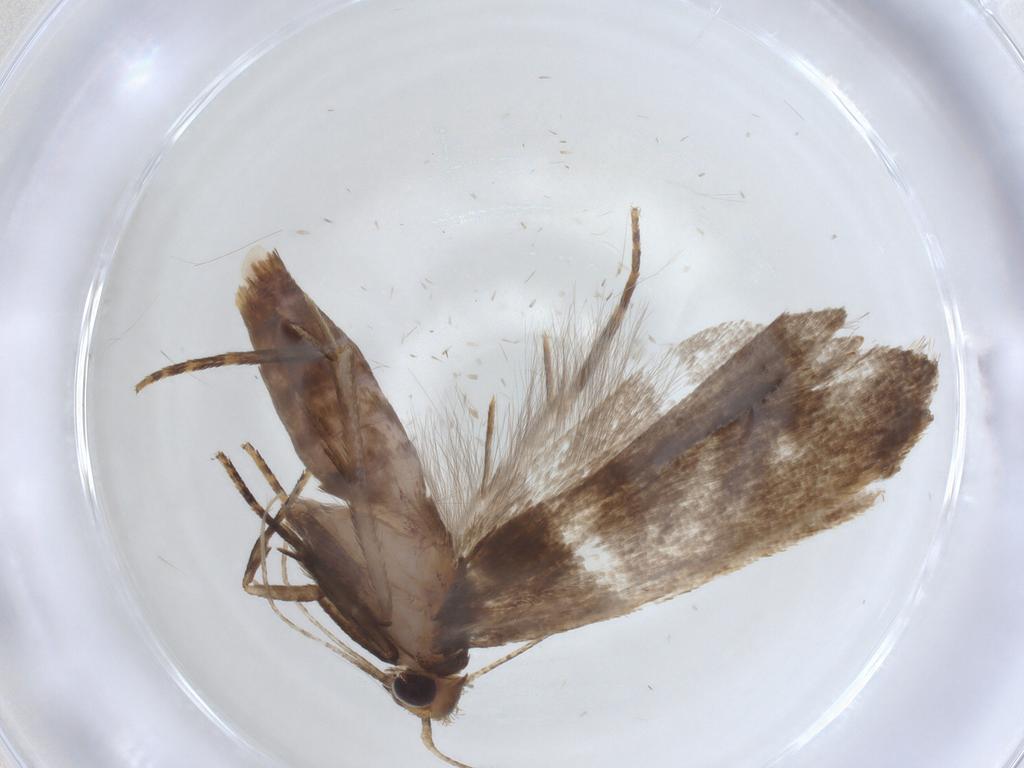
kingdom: Animalia
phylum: Arthropoda
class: Insecta
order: Lepidoptera
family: Gelechiidae
